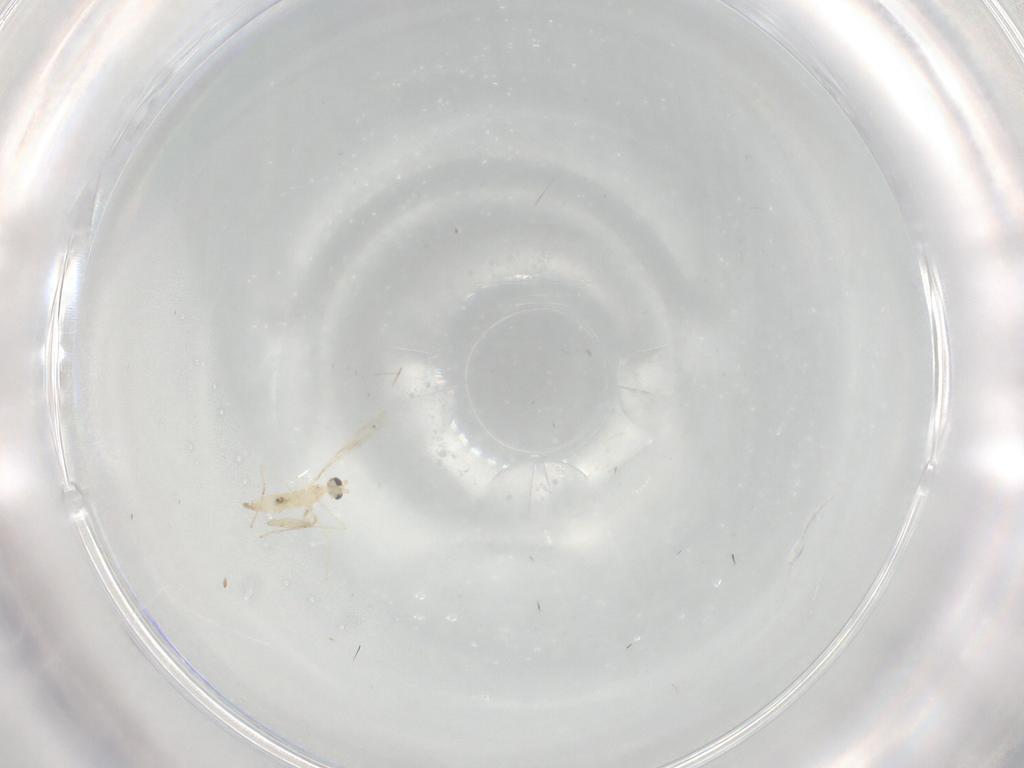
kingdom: Animalia
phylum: Arthropoda
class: Insecta
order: Diptera
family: Cecidomyiidae
